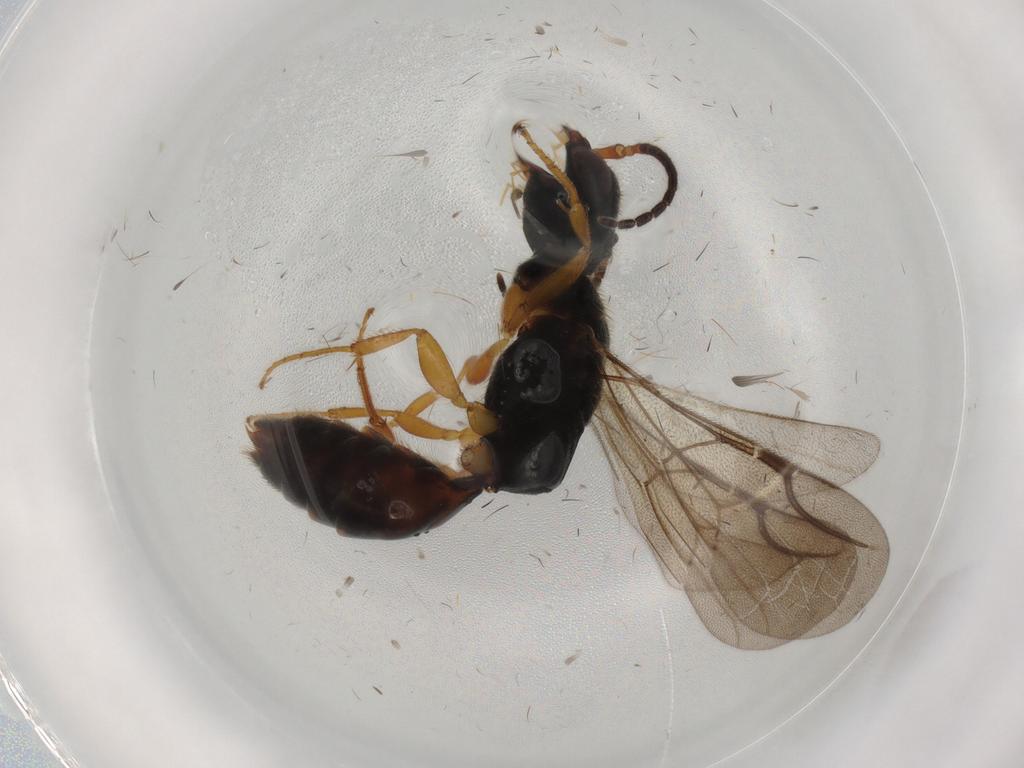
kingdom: Animalia
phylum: Arthropoda
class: Insecta
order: Hymenoptera
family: Bethylidae
